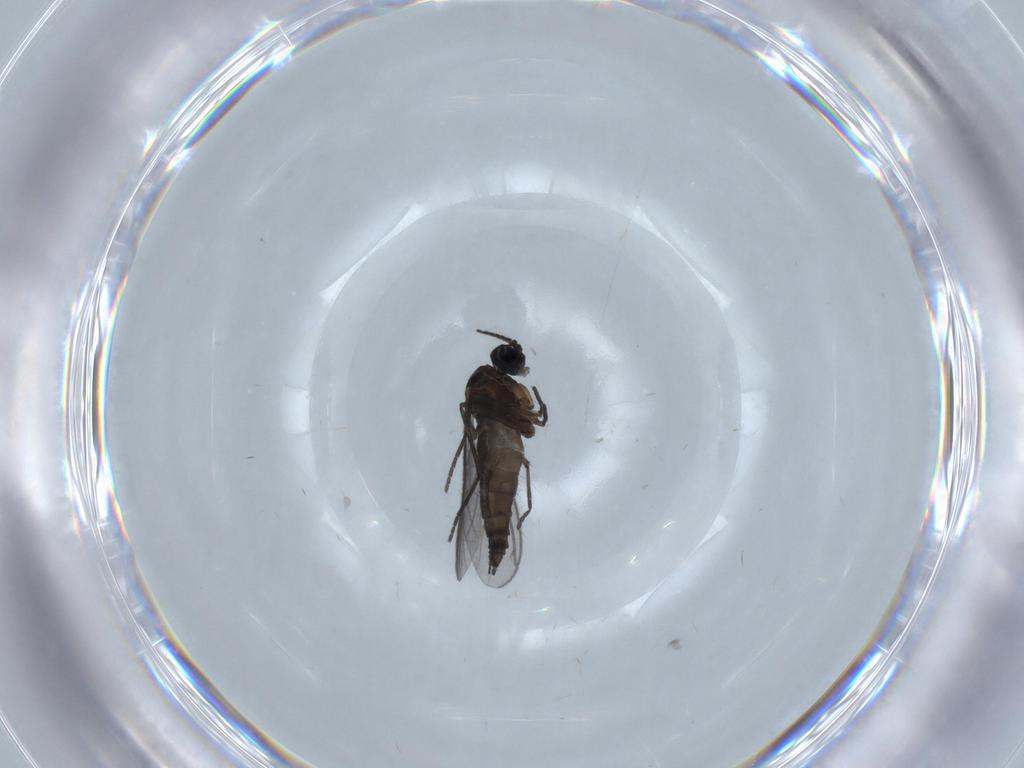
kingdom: Animalia
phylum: Arthropoda
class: Insecta
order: Diptera
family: Sciaridae
